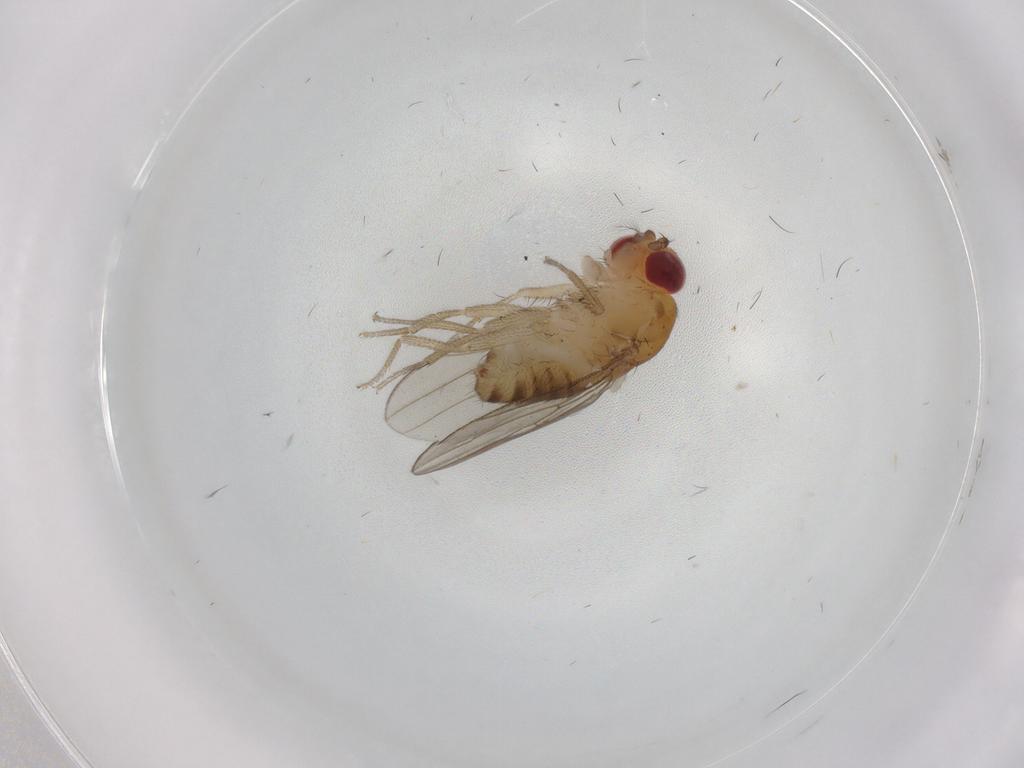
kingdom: Animalia
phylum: Arthropoda
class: Insecta
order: Diptera
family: Drosophilidae
